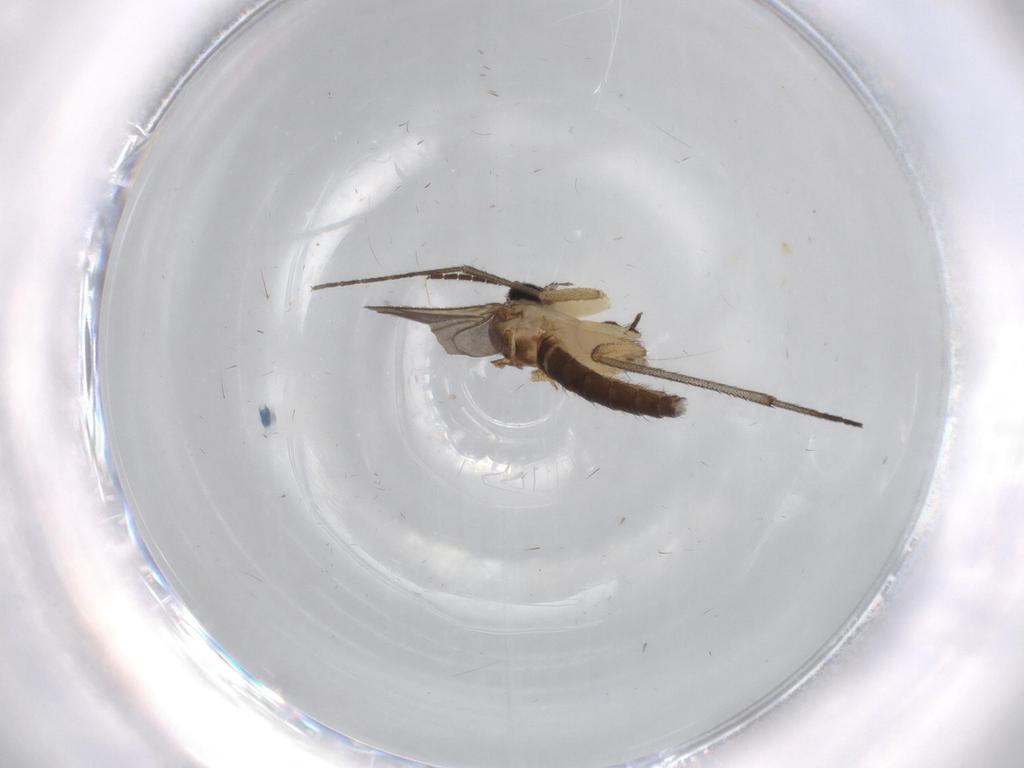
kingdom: Animalia
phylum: Arthropoda
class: Insecta
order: Diptera
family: Sciaridae
